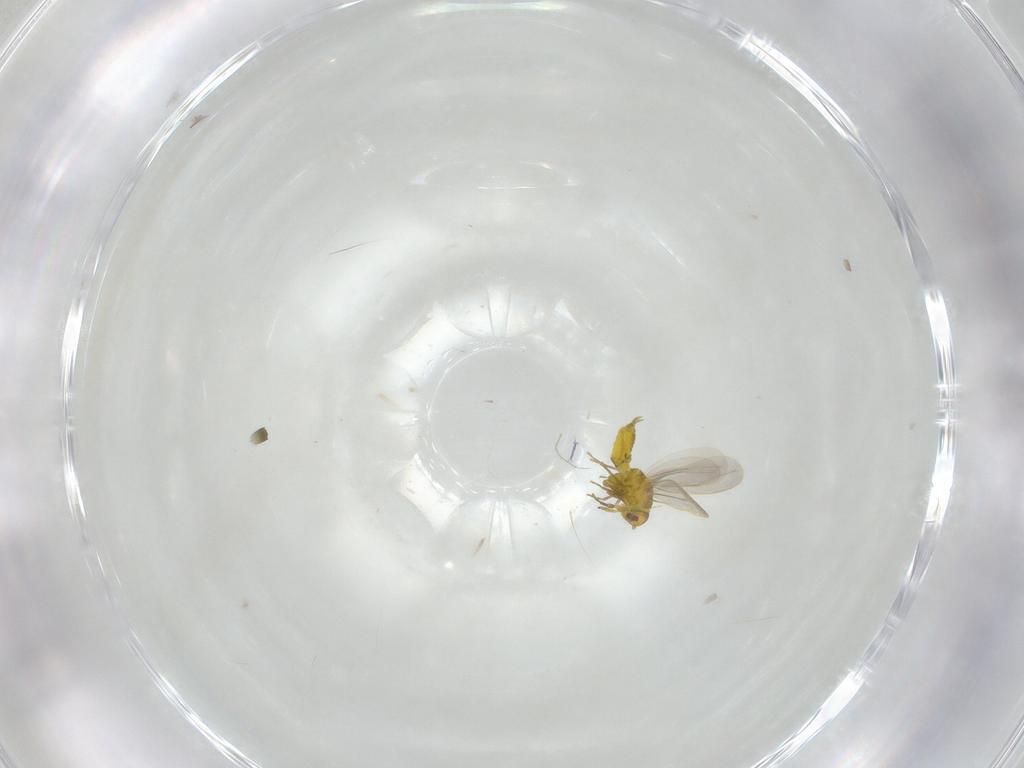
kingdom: Animalia
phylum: Arthropoda
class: Insecta
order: Hemiptera
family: Aleyrodidae
